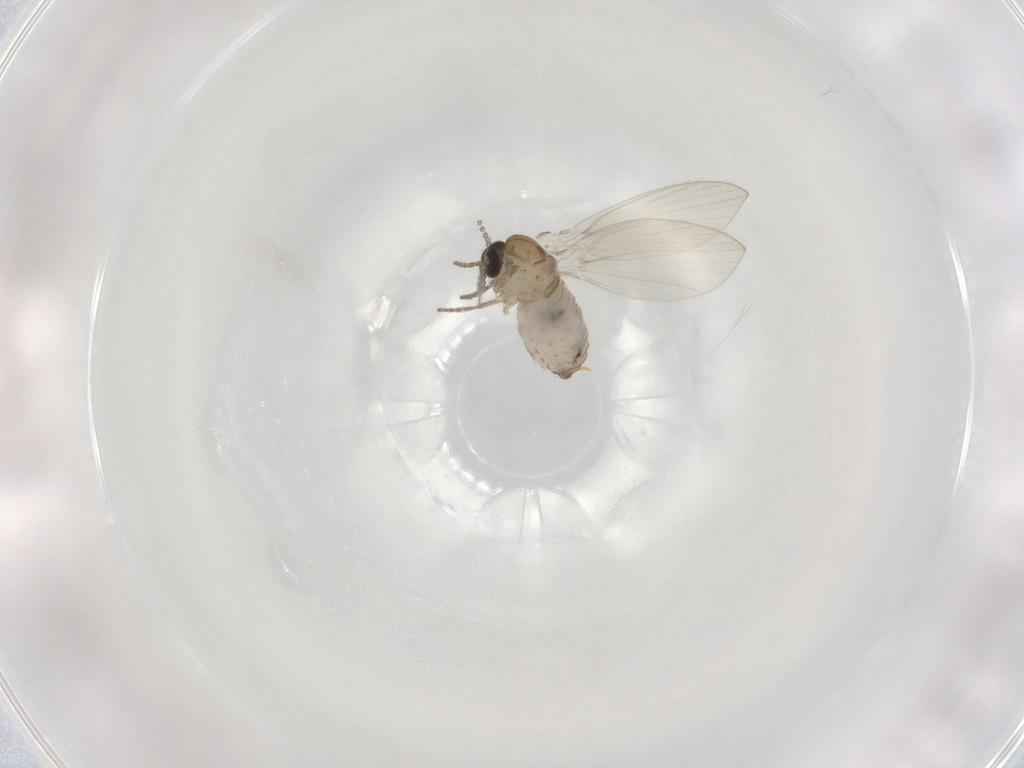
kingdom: Animalia
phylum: Arthropoda
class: Insecta
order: Diptera
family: Psychodidae
